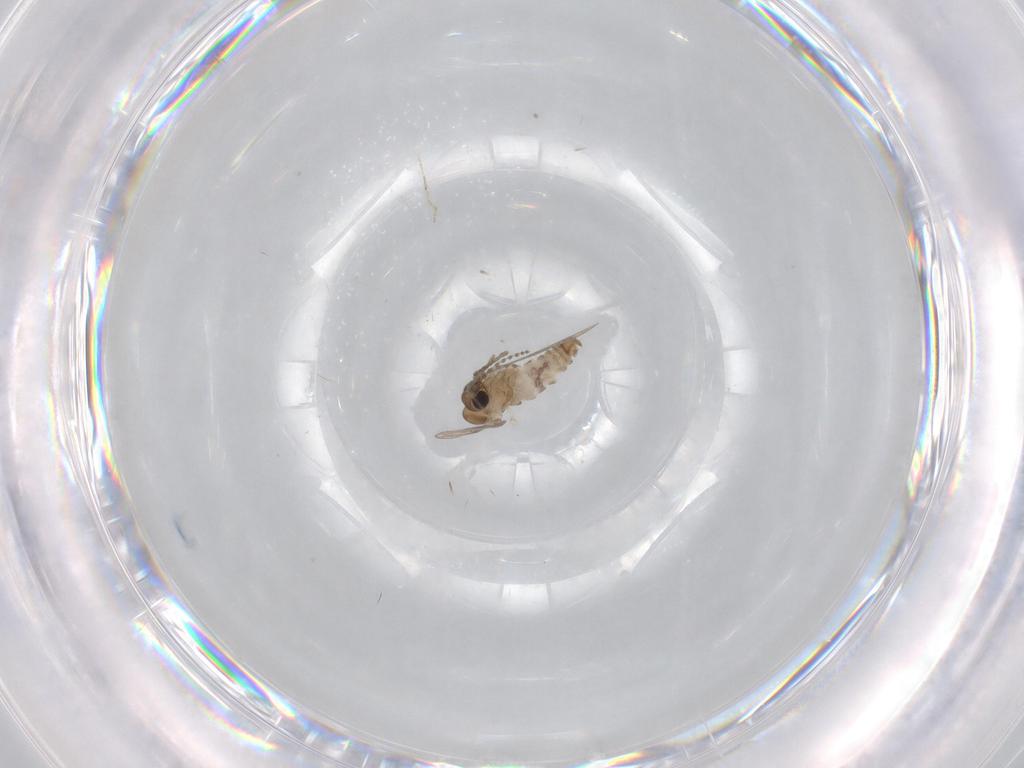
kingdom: Animalia
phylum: Arthropoda
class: Insecta
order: Diptera
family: Psychodidae
